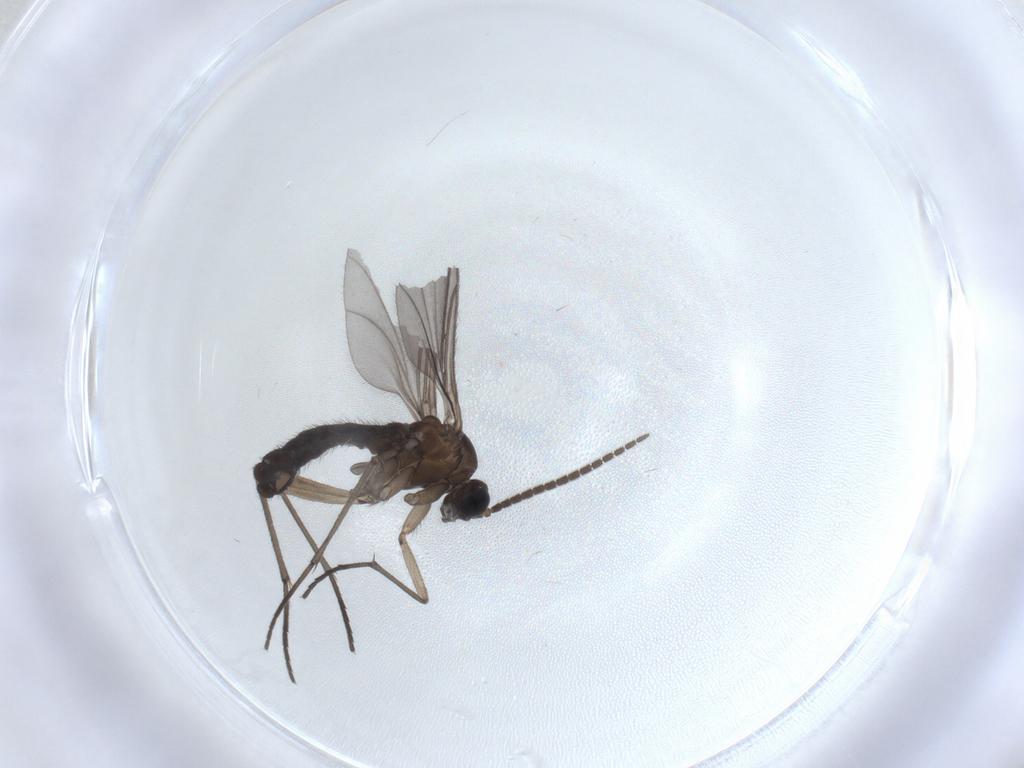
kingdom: Animalia
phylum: Arthropoda
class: Insecta
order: Diptera
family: Sciaridae
